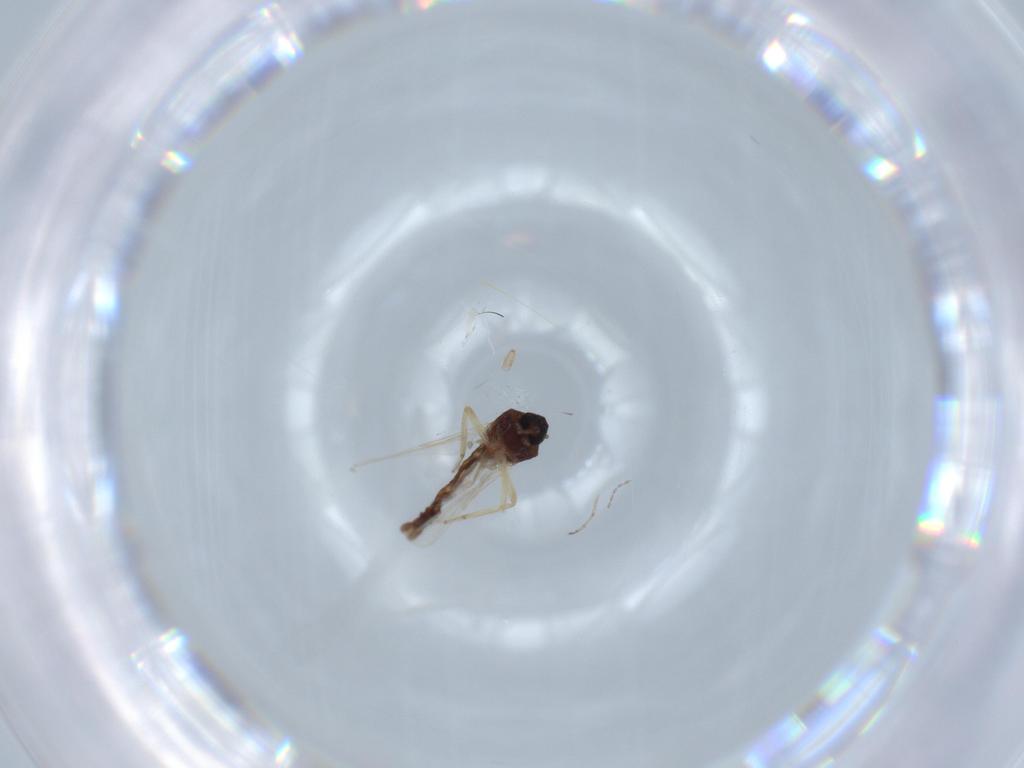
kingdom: Animalia
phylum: Arthropoda
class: Insecta
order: Diptera
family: Ceratopogonidae
